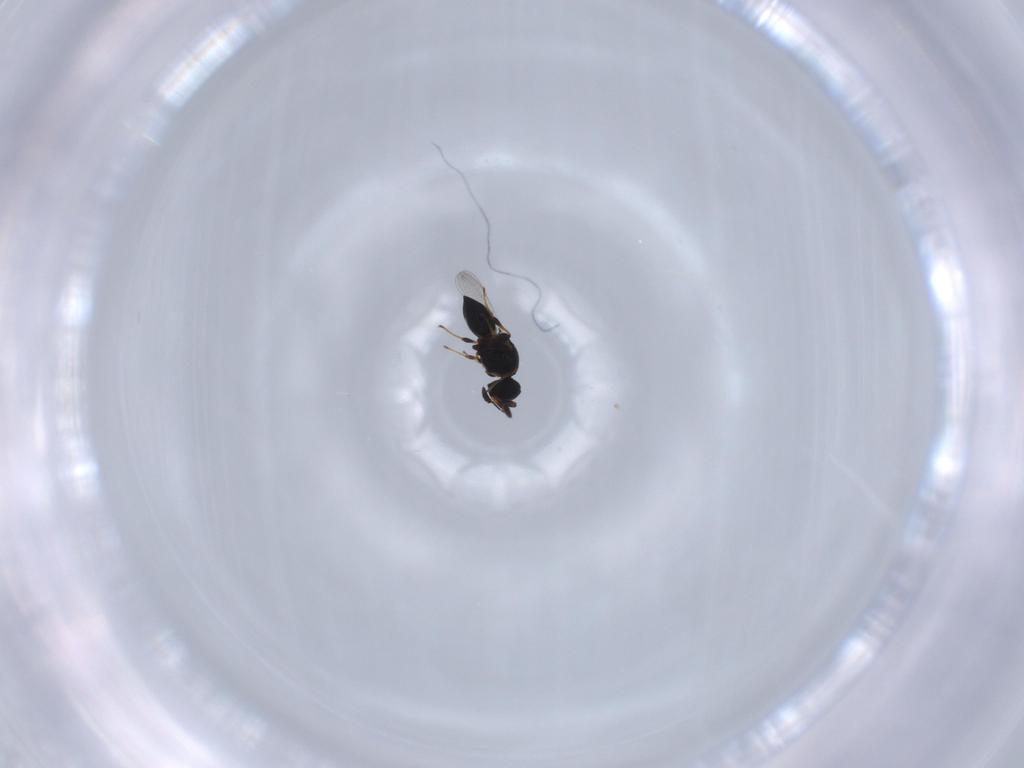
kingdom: Animalia
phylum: Arthropoda
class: Insecta
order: Hymenoptera
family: Platygastridae
